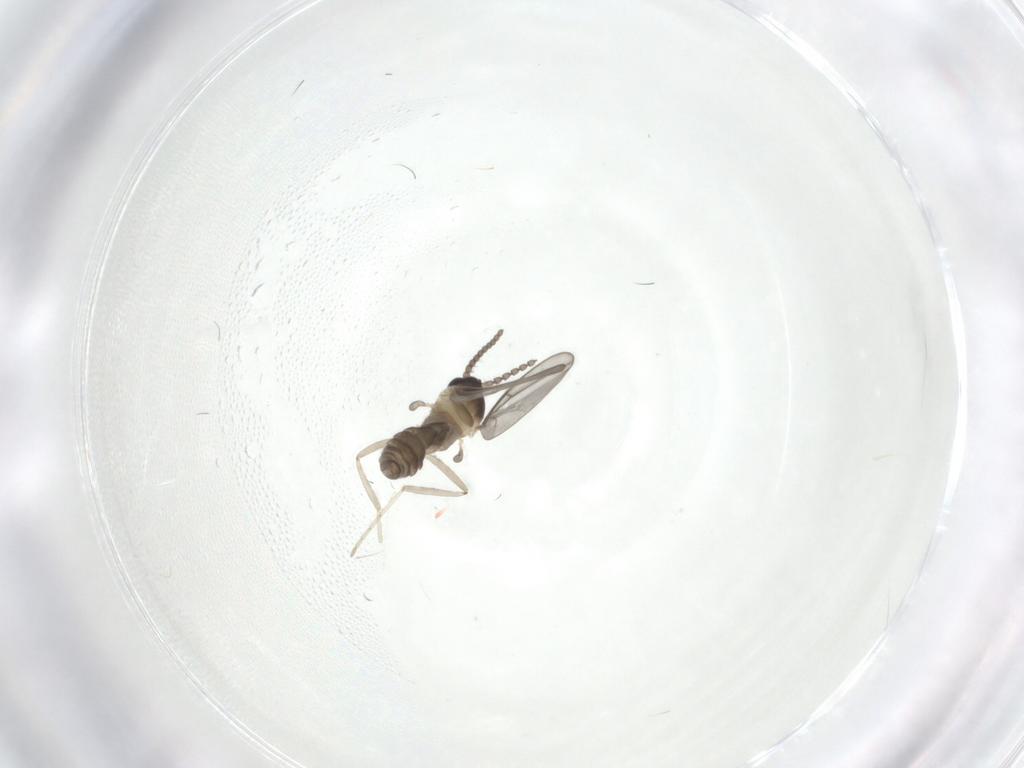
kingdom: Animalia
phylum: Arthropoda
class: Insecta
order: Diptera
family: Cecidomyiidae
